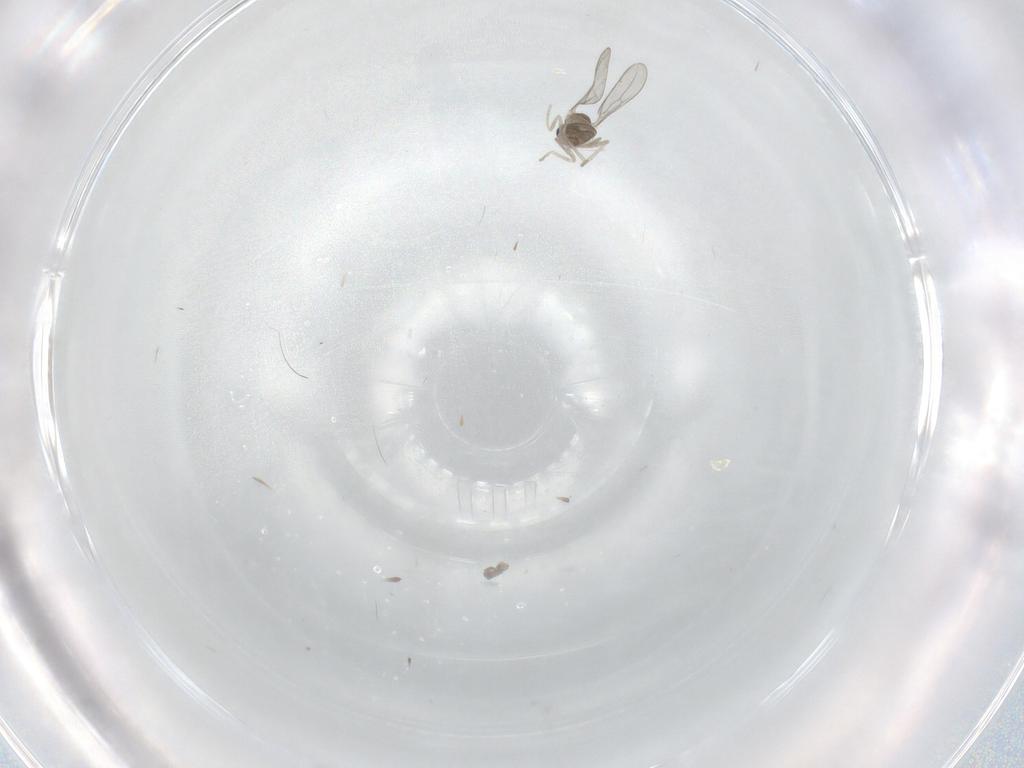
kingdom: Animalia
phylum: Arthropoda
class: Insecta
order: Diptera
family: Cecidomyiidae
